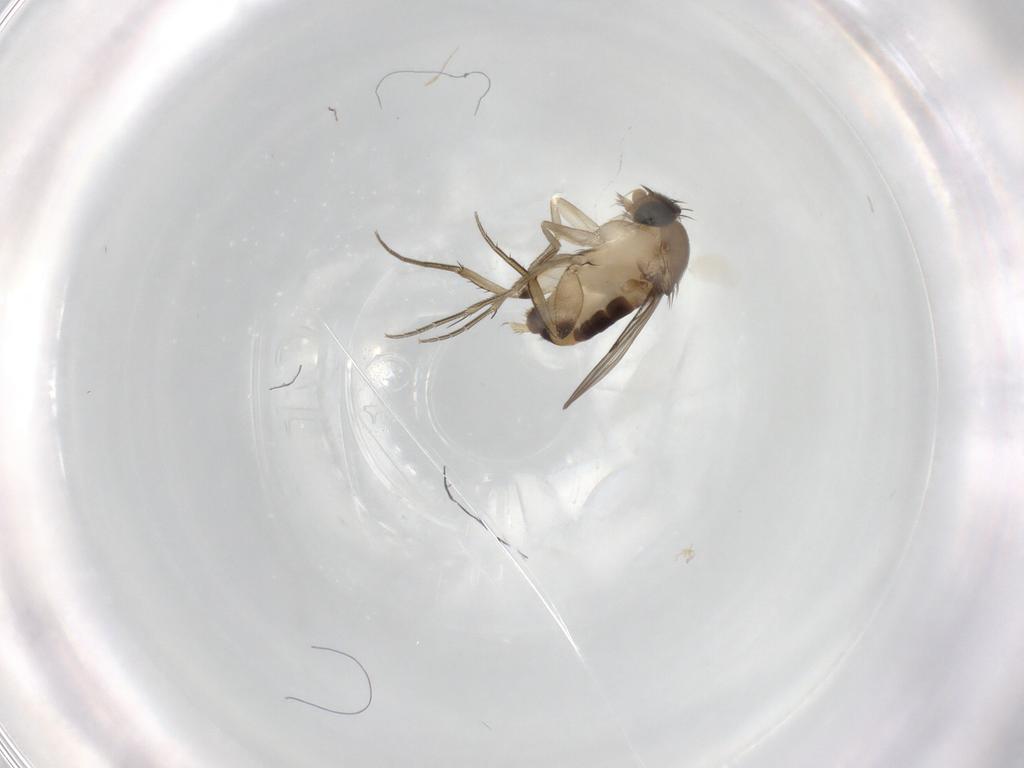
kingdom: Animalia
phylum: Arthropoda
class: Insecta
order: Diptera
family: Phoridae
